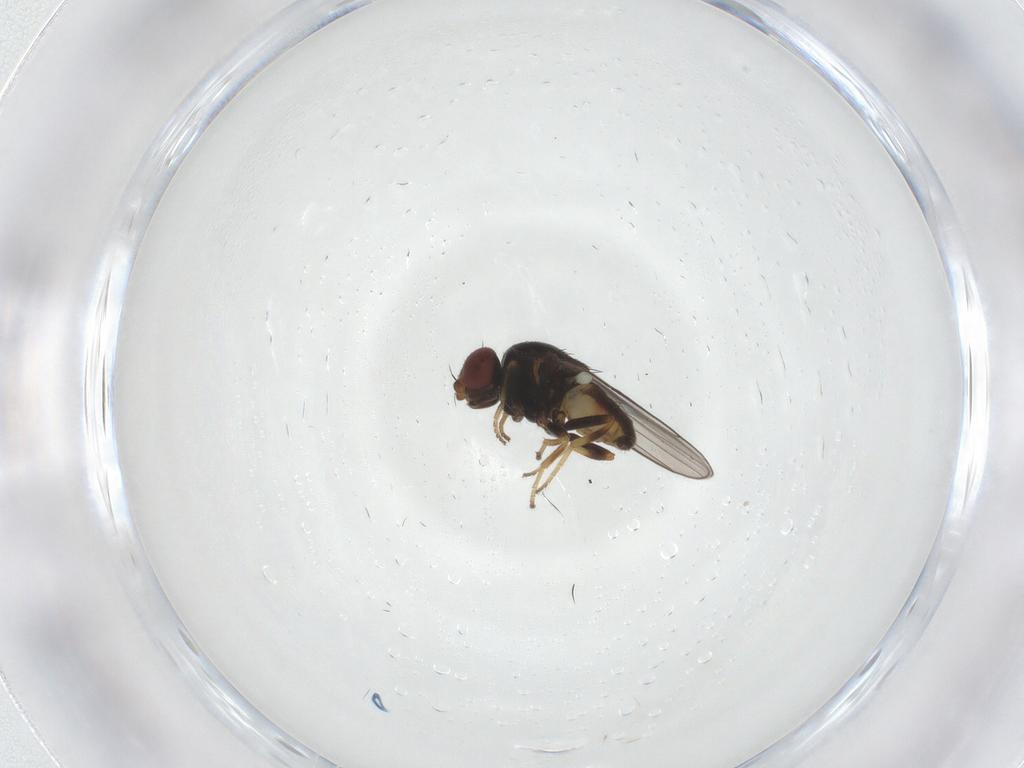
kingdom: Animalia
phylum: Arthropoda
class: Insecta
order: Diptera
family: Chloropidae
